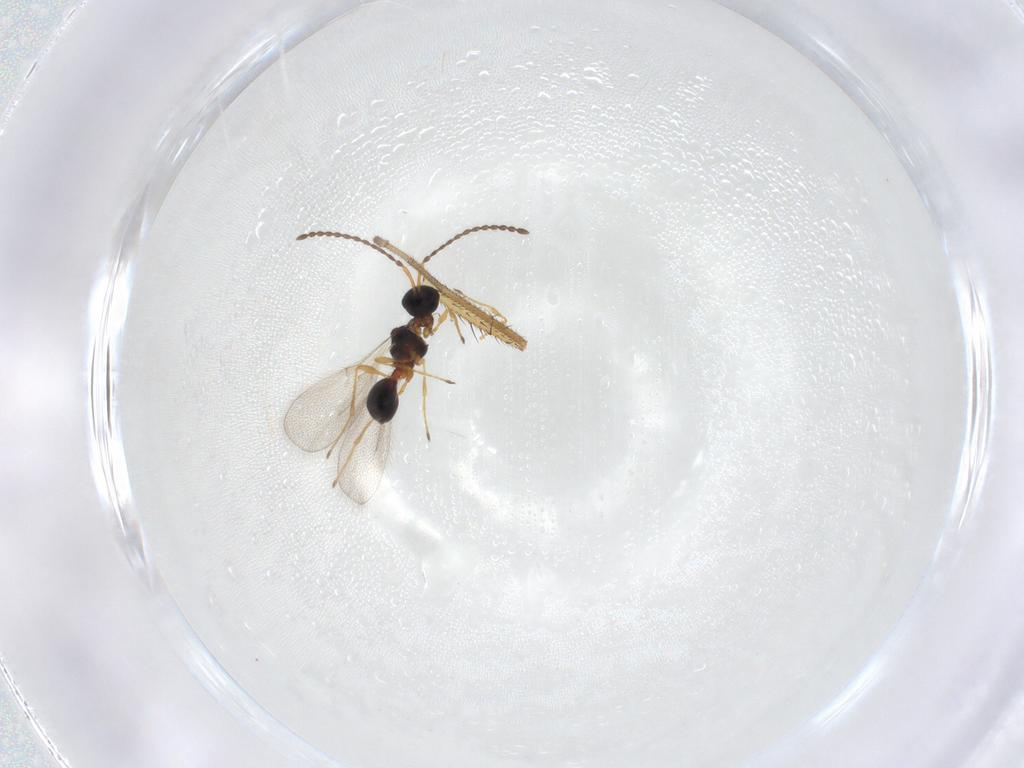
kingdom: Animalia
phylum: Arthropoda
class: Insecta
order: Hymenoptera
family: Diapriidae
